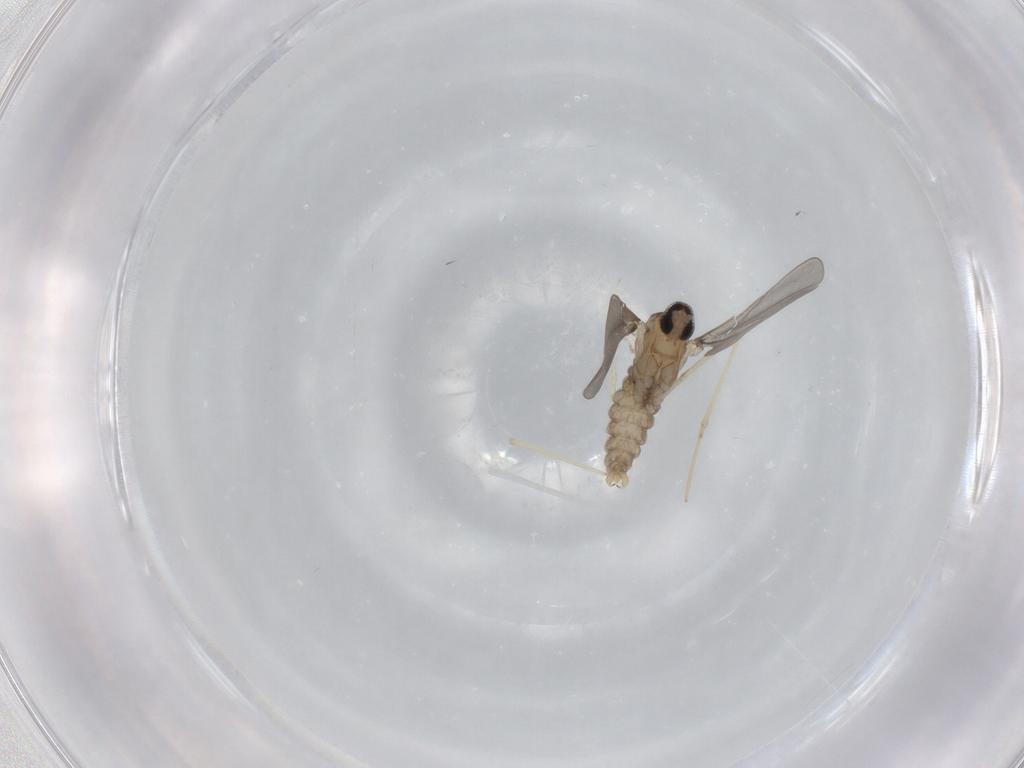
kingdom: Animalia
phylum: Arthropoda
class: Insecta
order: Diptera
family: Cecidomyiidae
